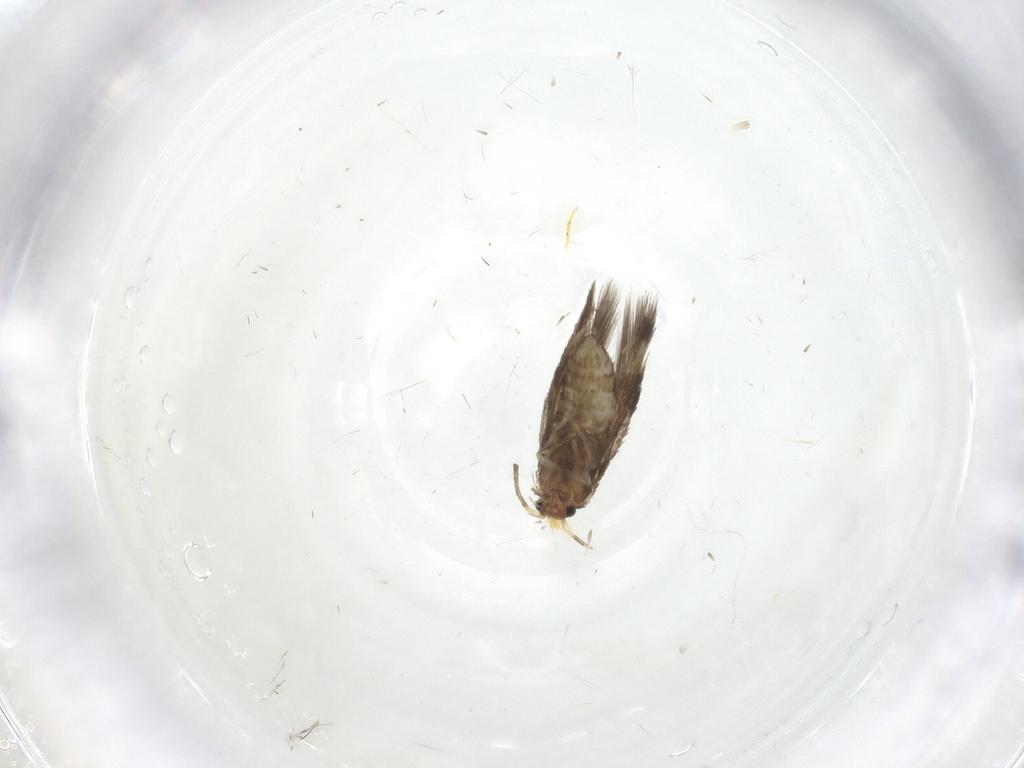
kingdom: Animalia
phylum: Arthropoda
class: Insecta
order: Lepidoptera
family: Nepticulidae
